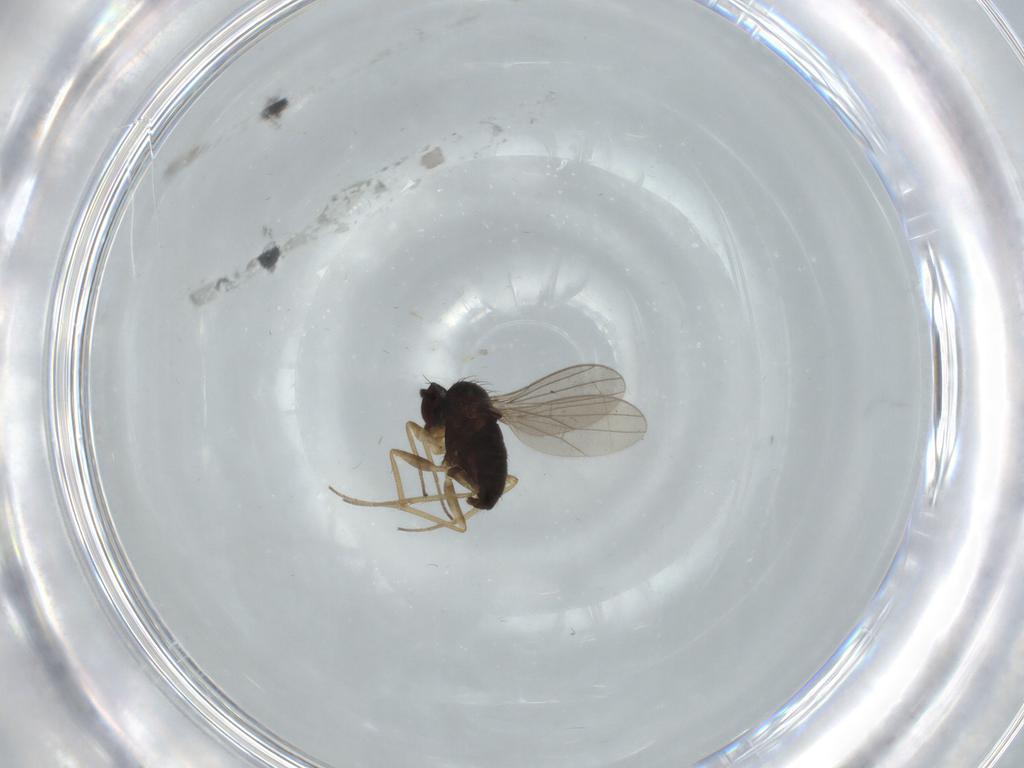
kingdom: Animalia
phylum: Arthropoda
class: Insecta
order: Diptera
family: Dolichopodidae
